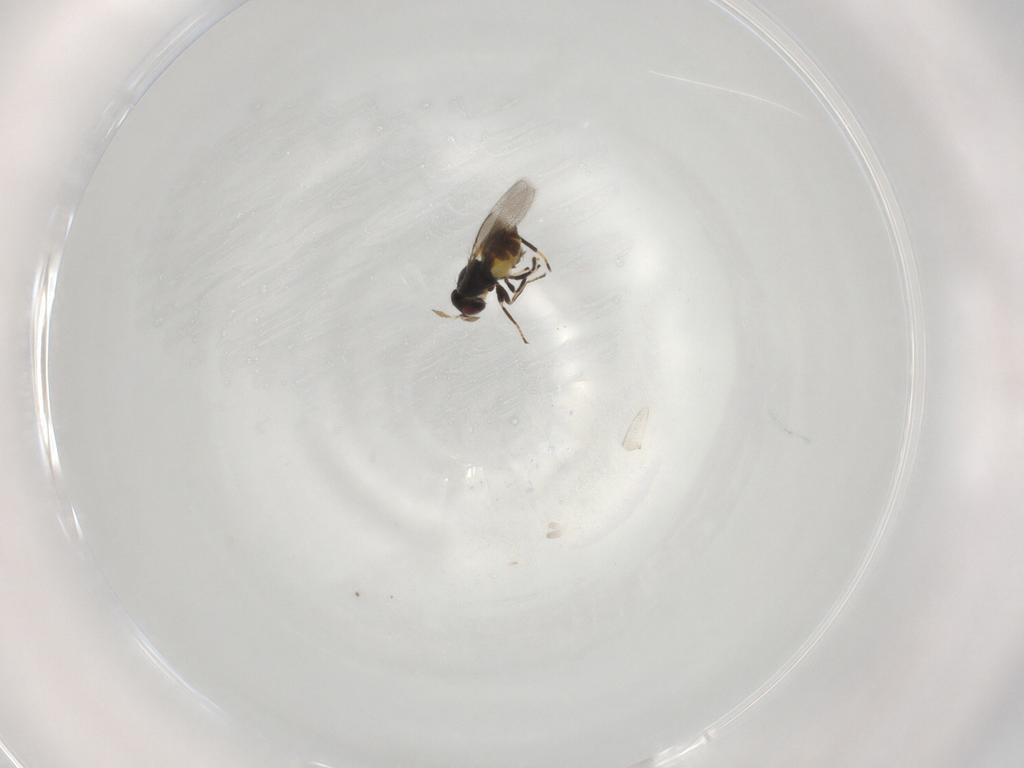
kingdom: Animalia
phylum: Arthropoda
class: Insecta
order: Hymenoptera
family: Eulophidae
